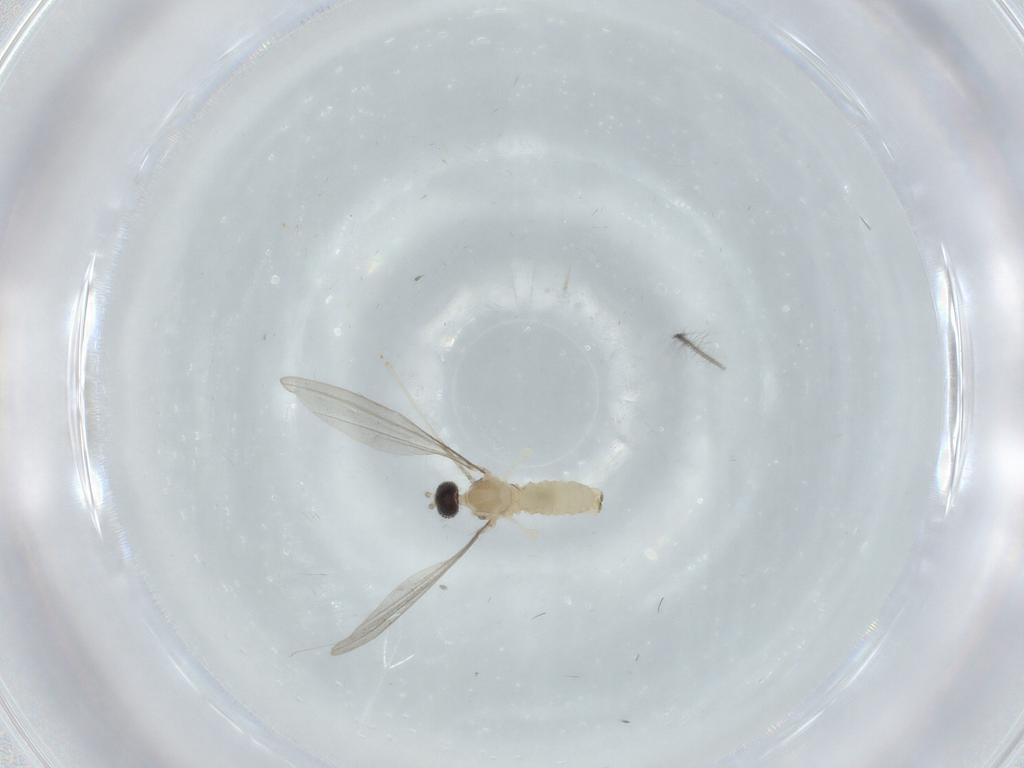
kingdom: Animalia
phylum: Arthropoda
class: Insecta
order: Diptera
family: Cecidomyiidae
